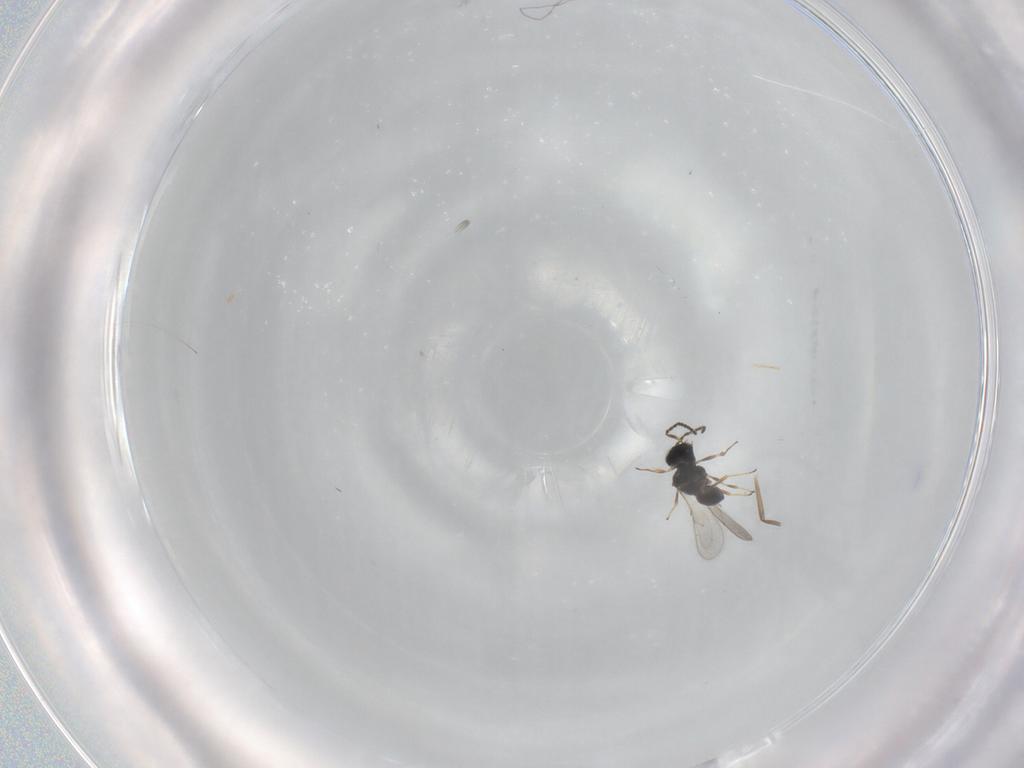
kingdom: Animalia
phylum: Arthropoda
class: Insecta
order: Hymenoptera
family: Scelionidae
